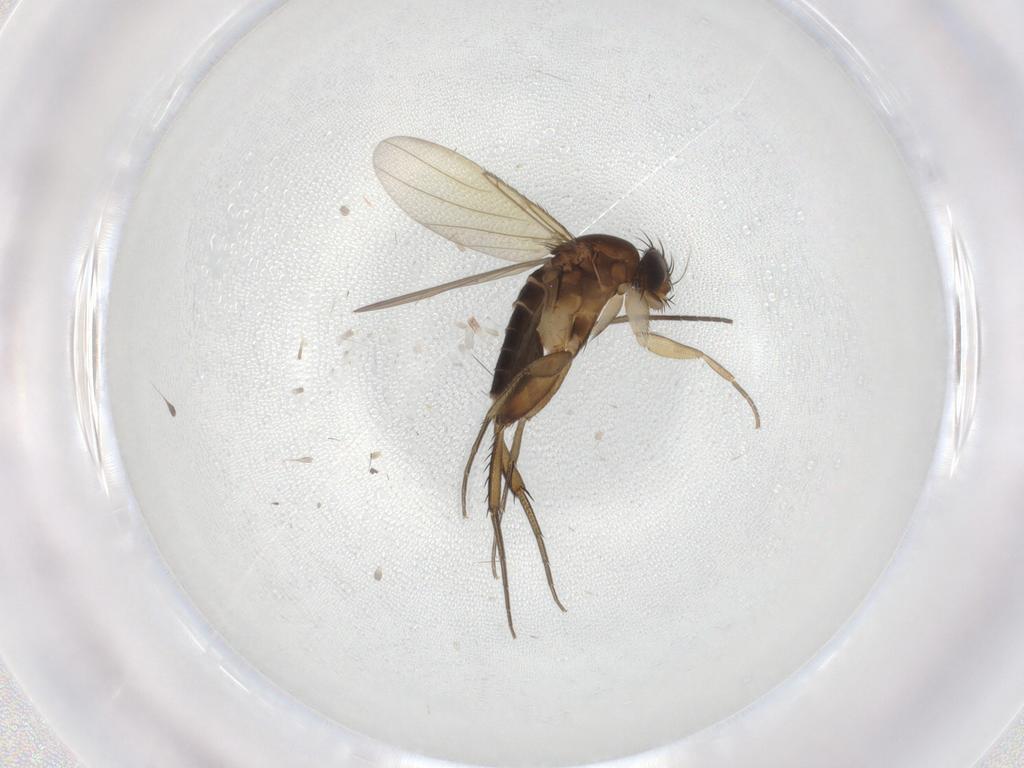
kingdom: Animalia
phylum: Arthropoda
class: Insecta
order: Diptera
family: Phoridae
